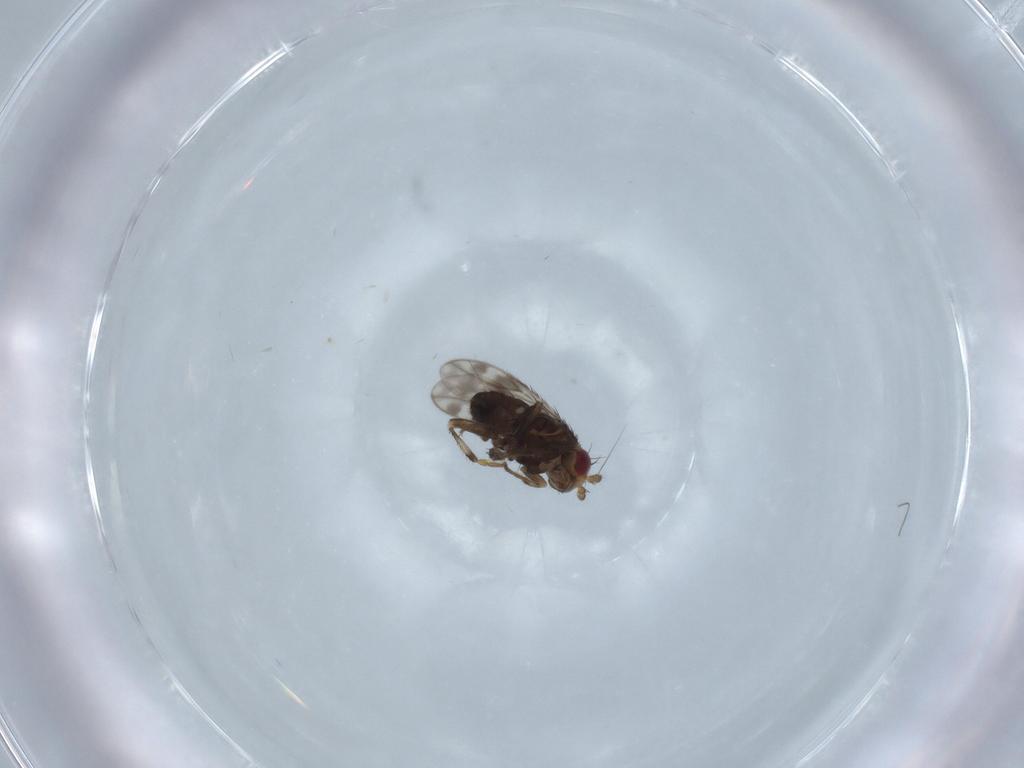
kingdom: Animalia
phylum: Arthropoda
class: Insecta
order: Diptera
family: Sphaeroceridae
